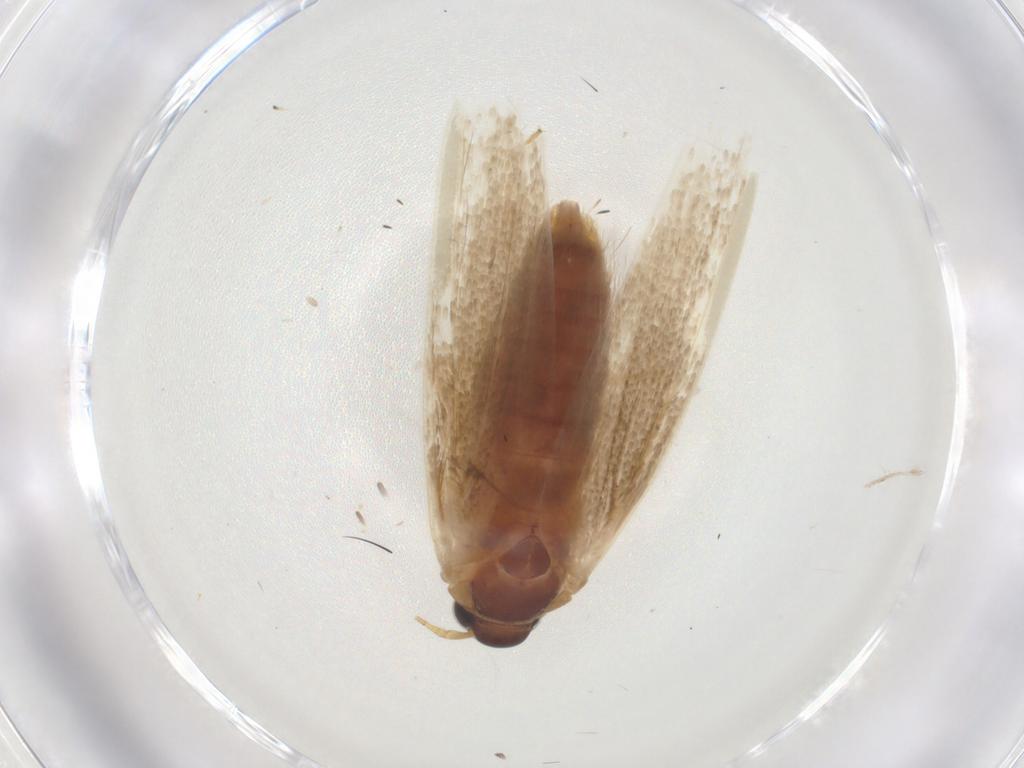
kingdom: Animalia
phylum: Arthropoda
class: Insecta
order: Lepidoptera
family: Blastobasidae
